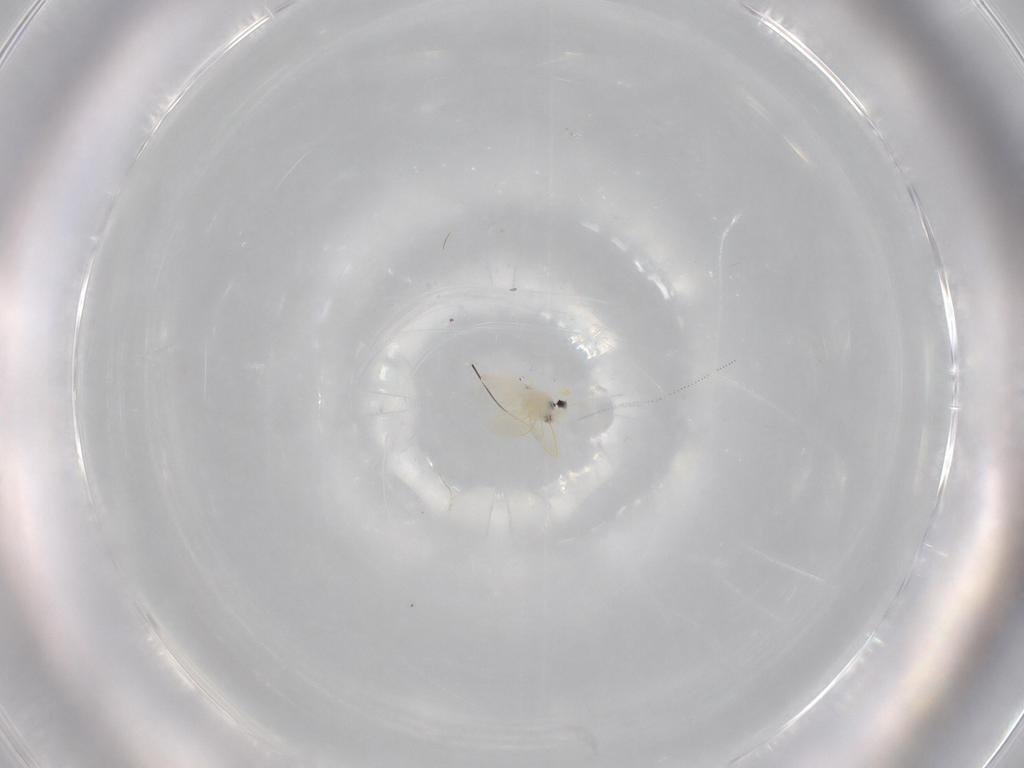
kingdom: Animalia
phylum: Arthropoda
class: Insecta
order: Hemiptera
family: Aleyrodidae
